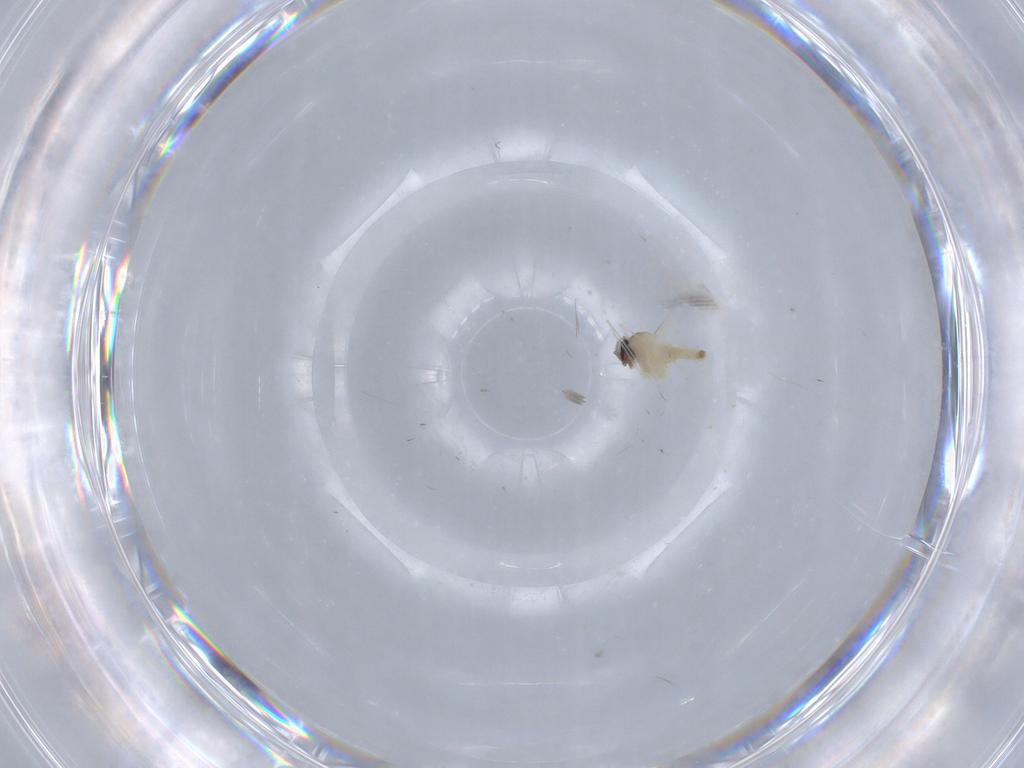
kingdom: Animalia
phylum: Arthropoda
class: Insecta
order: Diptera
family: Cecidomyiidae
